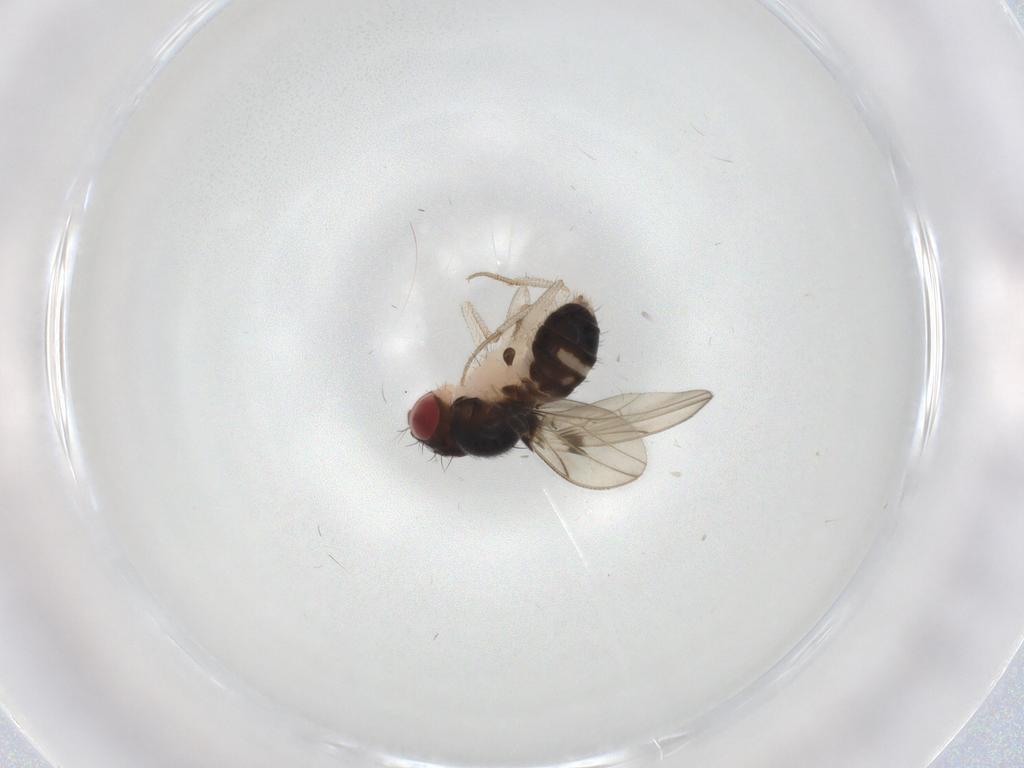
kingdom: Animalia
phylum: Arthropoda
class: Insecta
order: Diptera
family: Drosophilidae
